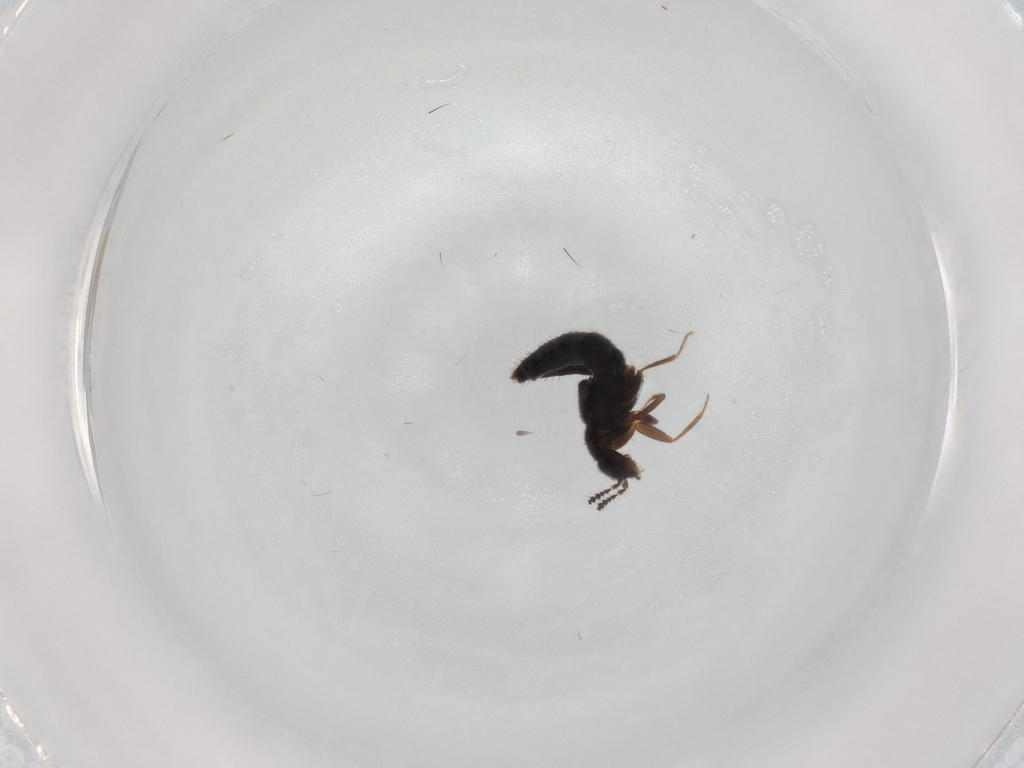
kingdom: Animalia
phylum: Arthropoda
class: Insecta
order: Coleoptera
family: Staphylinidae
